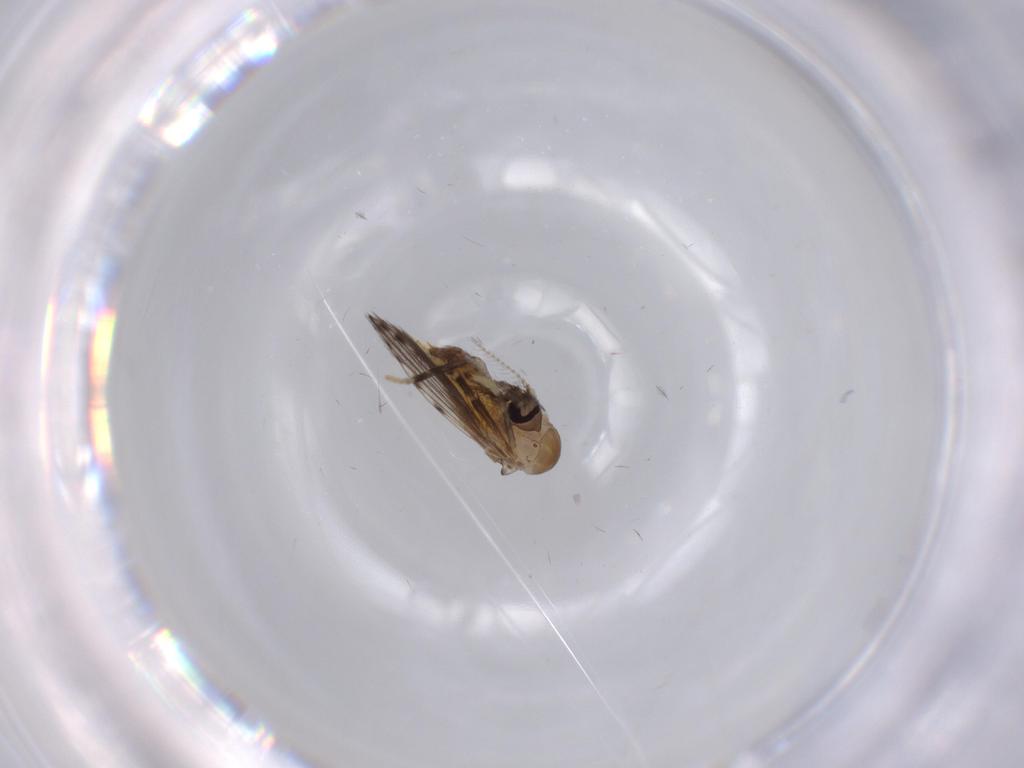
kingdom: Animalia
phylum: Arthropoda
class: Insecta
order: Diptera
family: Psychodidae
